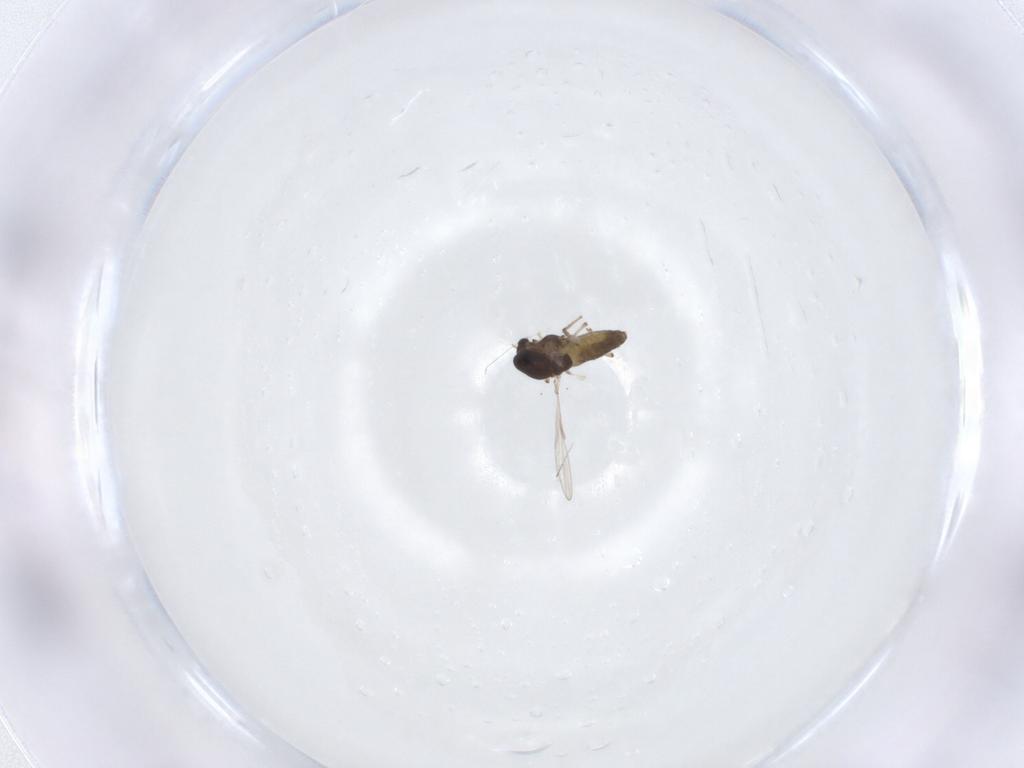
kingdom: Animalia
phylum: Arthropoda
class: Insecta
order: Diptera
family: Chironomidae
